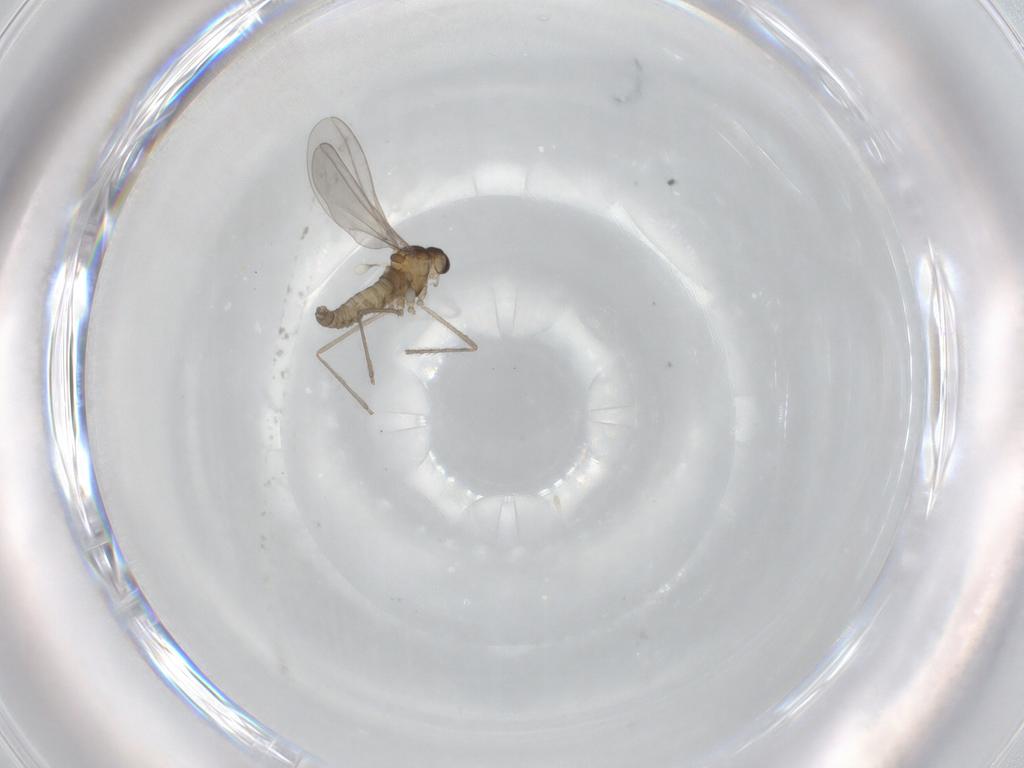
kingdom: Animalia
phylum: Arthropoda
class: Insecta
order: Diptera
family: Cecidomyiidae
